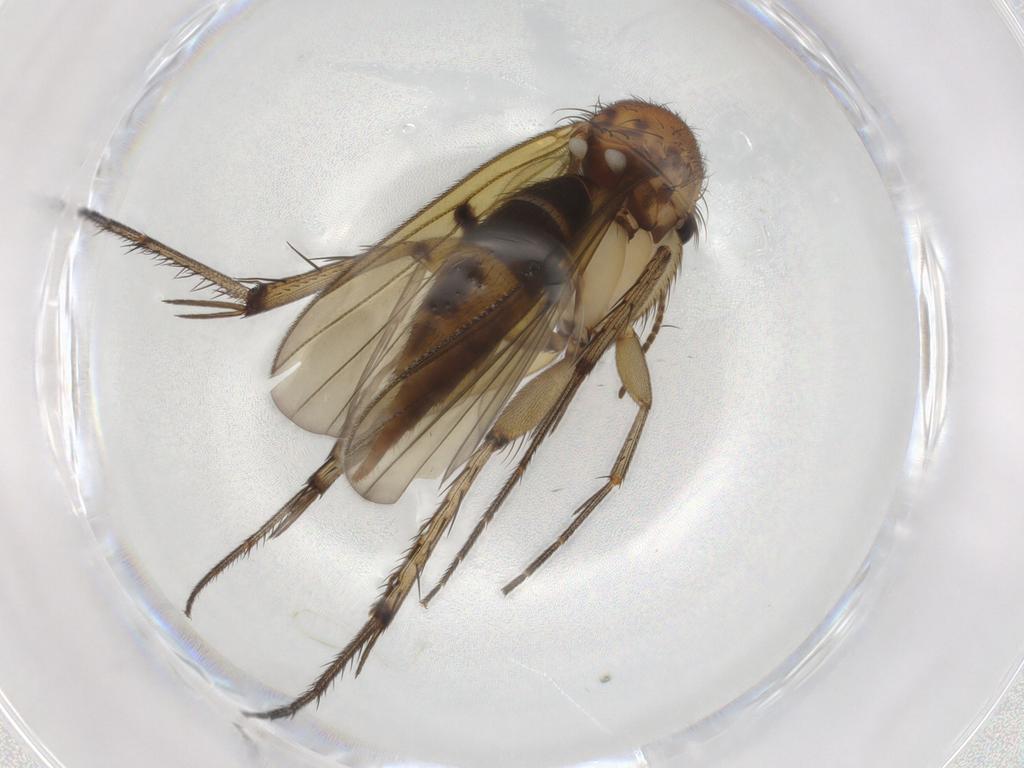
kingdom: Animalia
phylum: Arthropoda
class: Insecta
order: Diptera
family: Mycetophilidae
